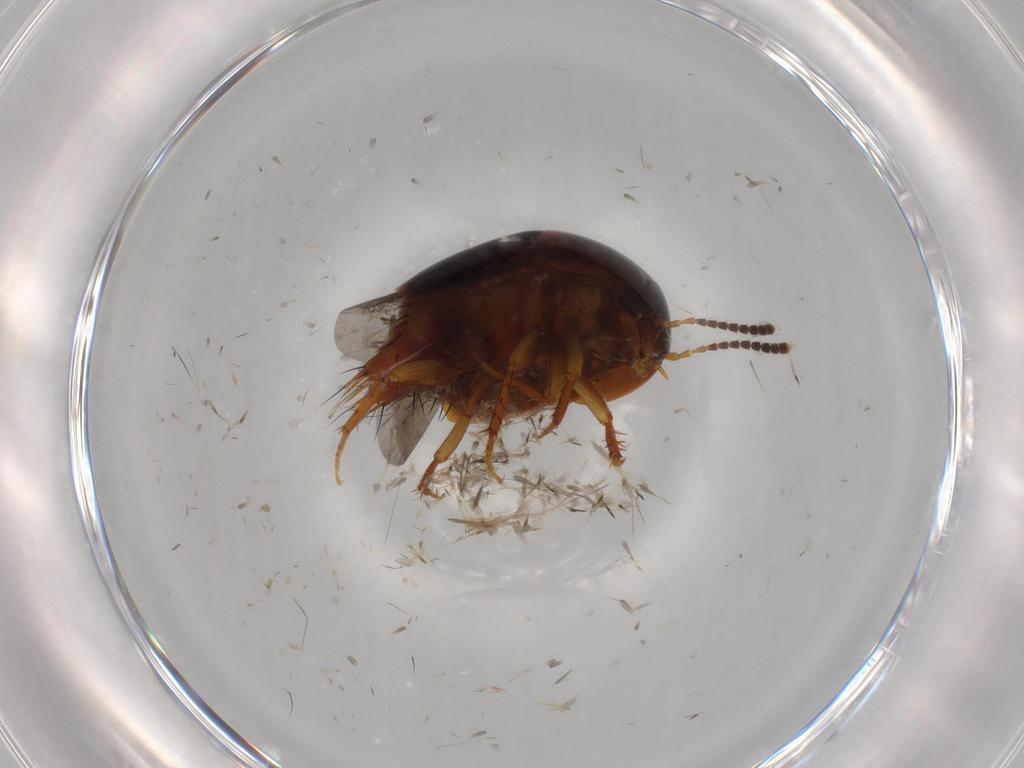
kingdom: Animalia
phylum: Arthropoda
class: Insecta
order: Coleoptera
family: Staphylinidae
